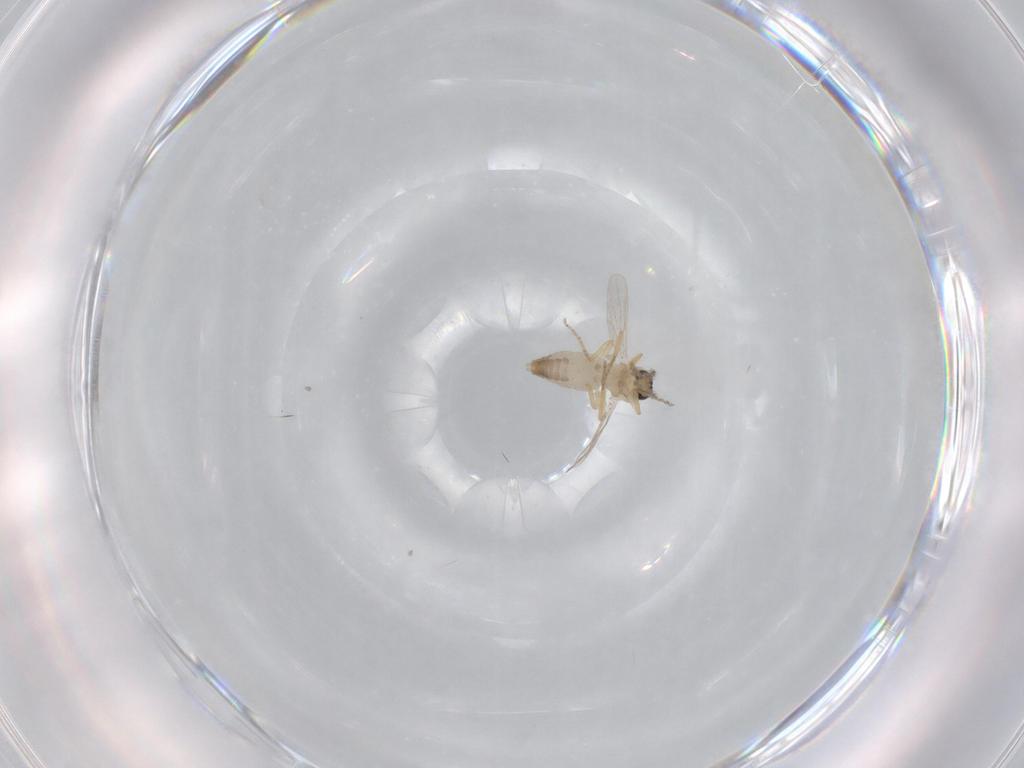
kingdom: Animalia
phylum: Arthropoda
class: Insecta
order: Diptera
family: Ceratopogonidae
